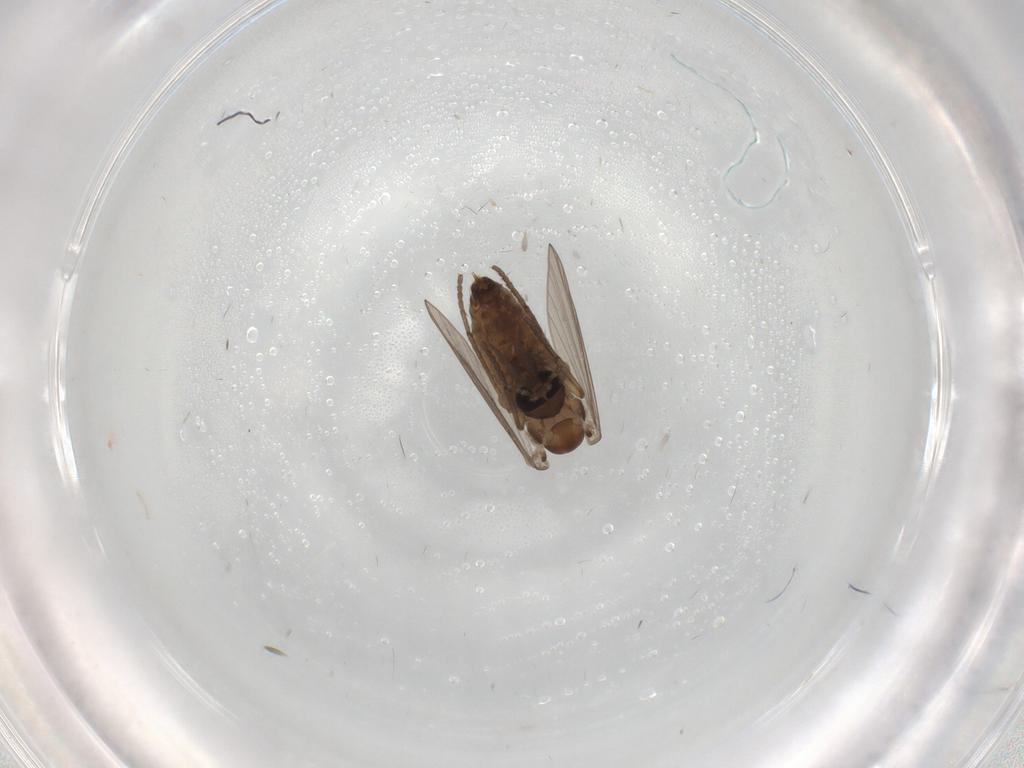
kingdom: Animalia
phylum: Arthropoda
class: Insecta
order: Diptera
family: Psychodidae
